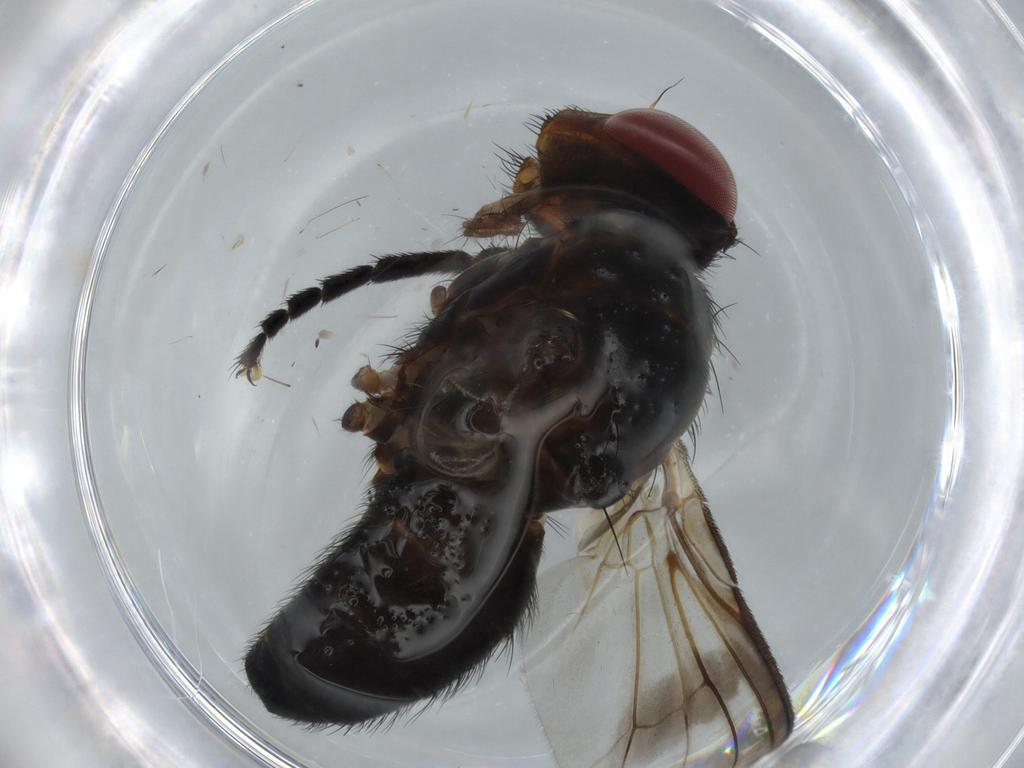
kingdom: Animalia
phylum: Arthropoda
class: Insecta
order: Diptera
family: Calliphoridae
